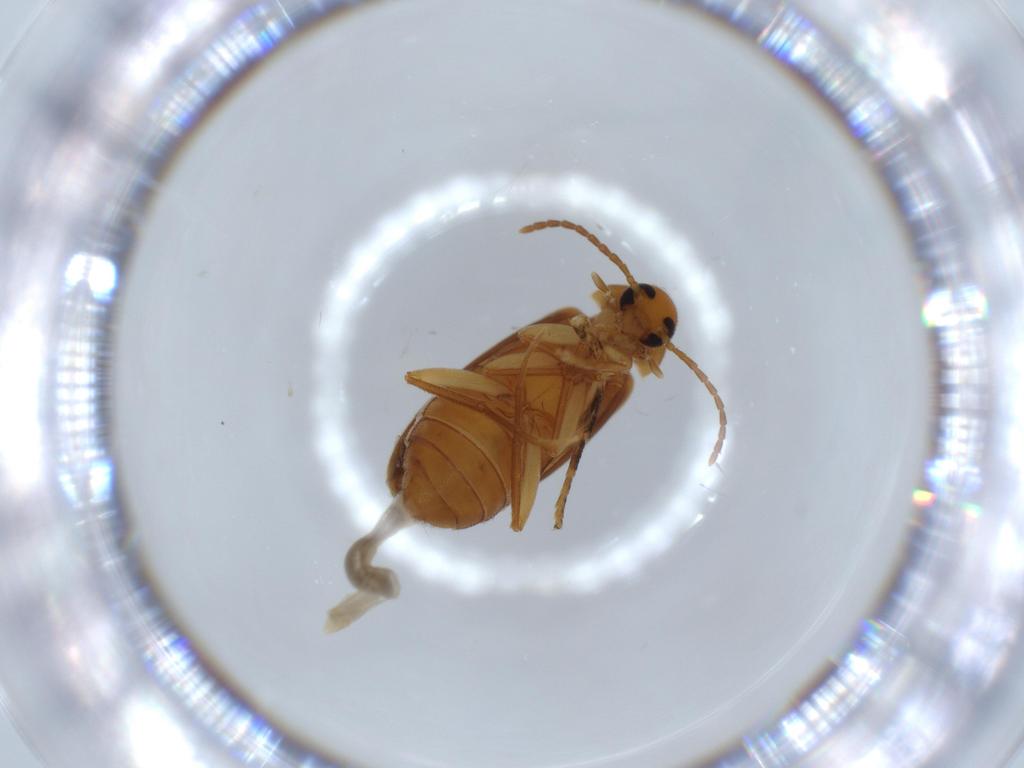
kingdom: Animalia
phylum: Arthropoda
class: Insecta
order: Coleoptera
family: Scraptiidae
